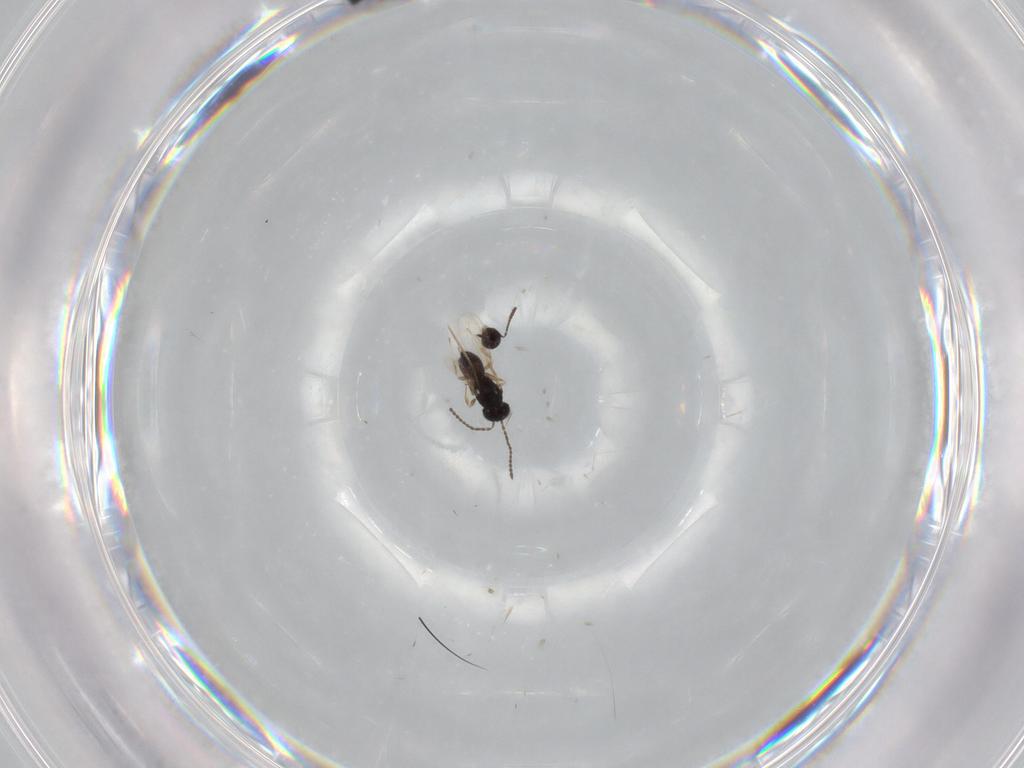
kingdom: Animalia
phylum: Arthropoda
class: Insecta
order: Hymenoptera
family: Scelionidae
